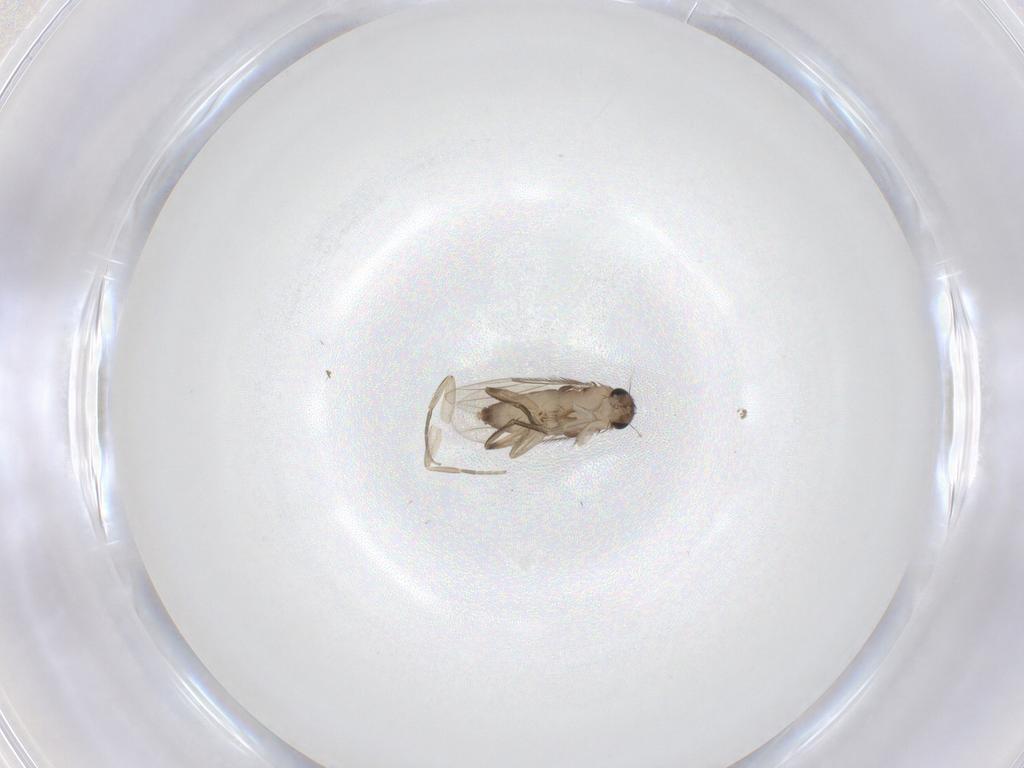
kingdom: Animalia
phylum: Arthropoda
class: Insecta
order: Diptera
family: Phoridae
